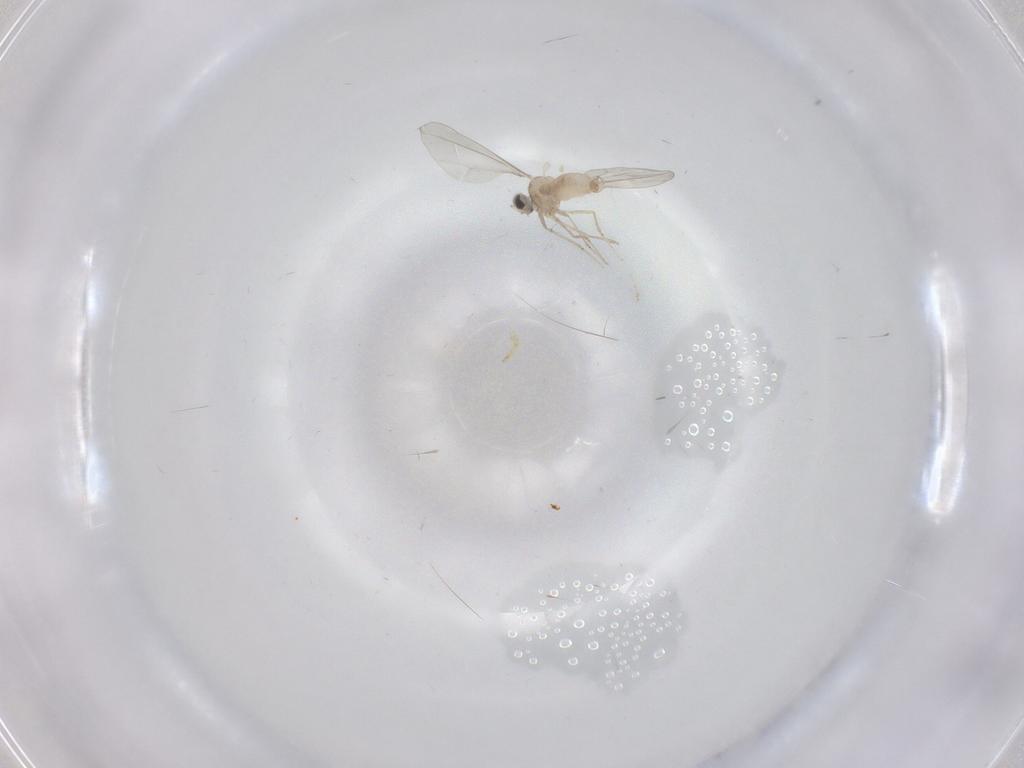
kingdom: Animalia
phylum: Arthropoda
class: Insecta
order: Diptera
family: Cecidomyiidae
